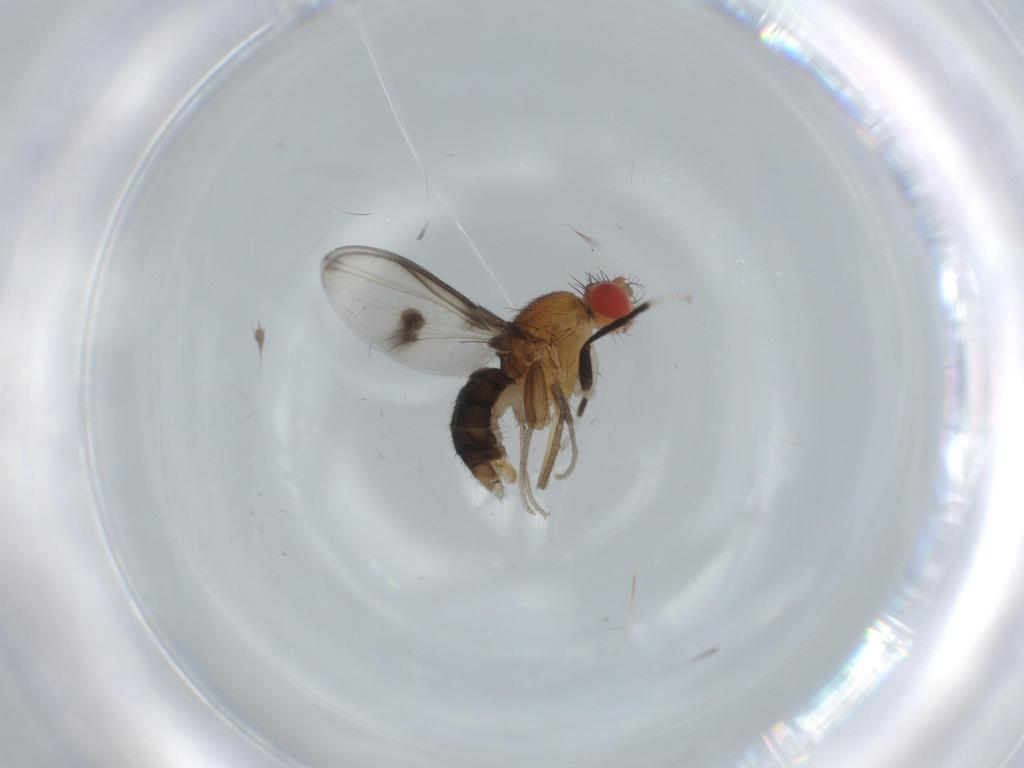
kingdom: Animalia
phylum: Arthropoda
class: Insecta
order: Diptera
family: Drosophilidae
